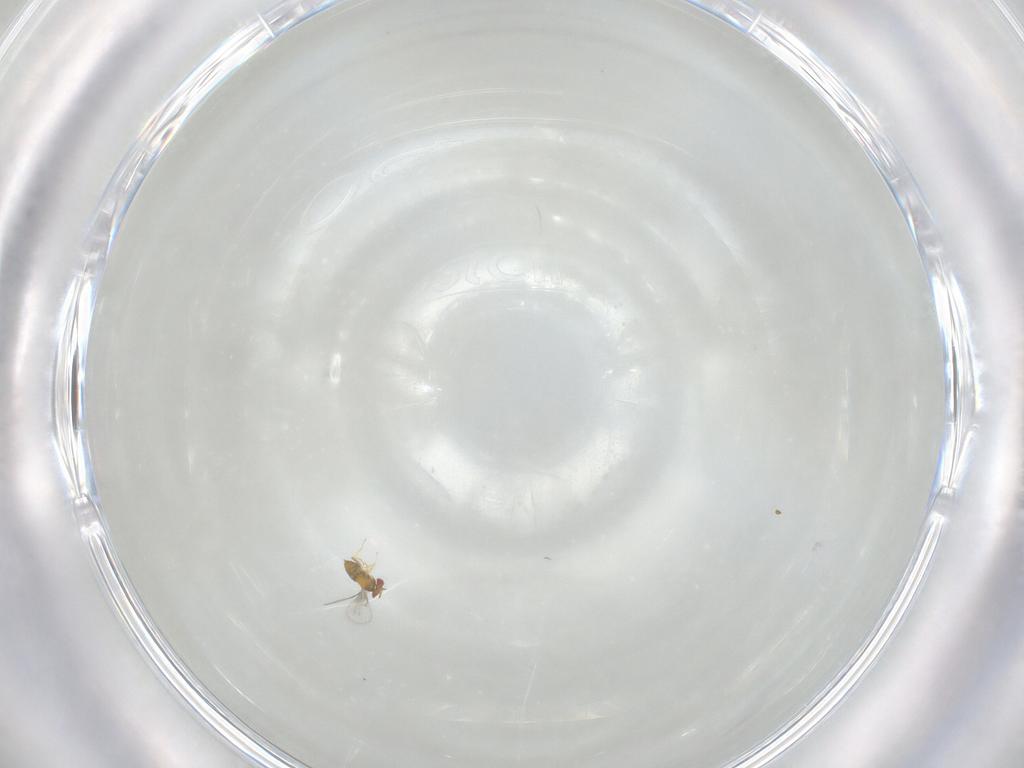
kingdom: Animalia
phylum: Arthropoda
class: Insecta
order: Hymenoptera
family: Trichogrammatidae
